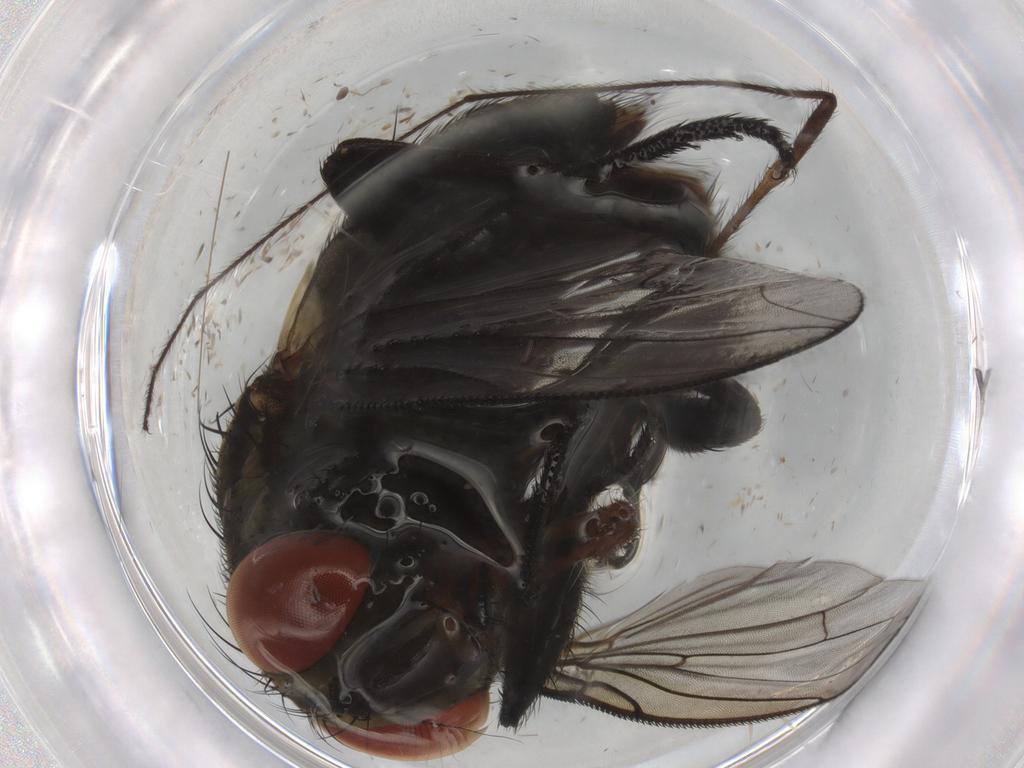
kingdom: Animalia
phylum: Arthropoda
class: Insecta
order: Diptera
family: Psychodidae
